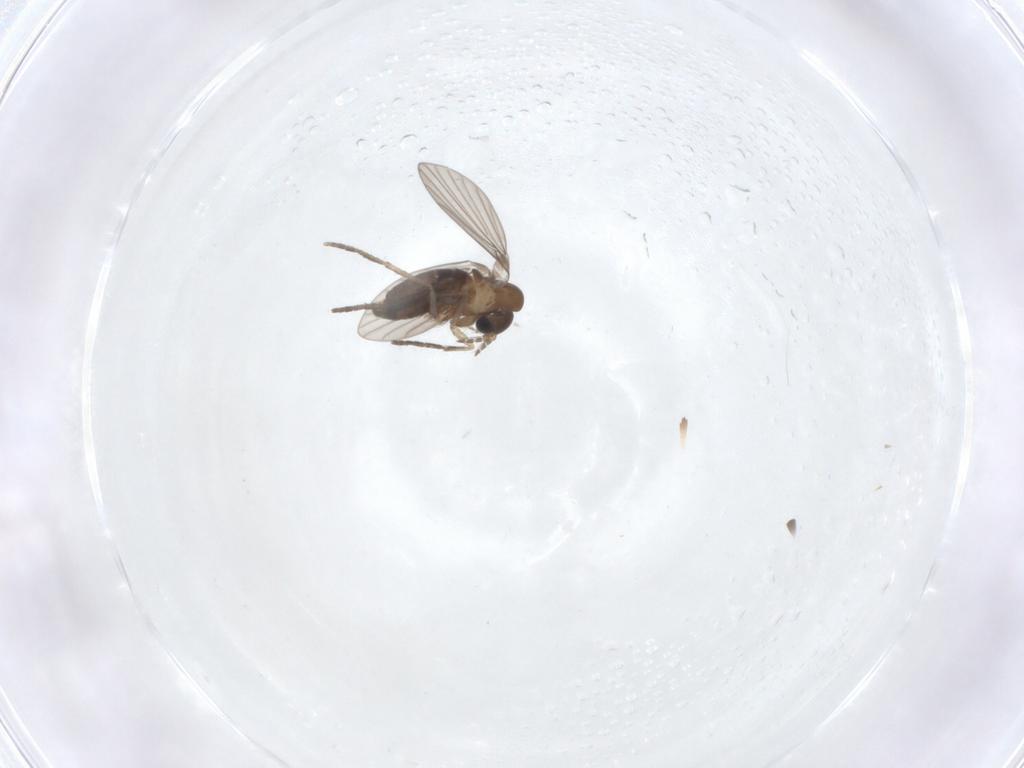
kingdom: Animalia
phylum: Arthropoda
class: Insecta
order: Diptera
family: Psychodidae
